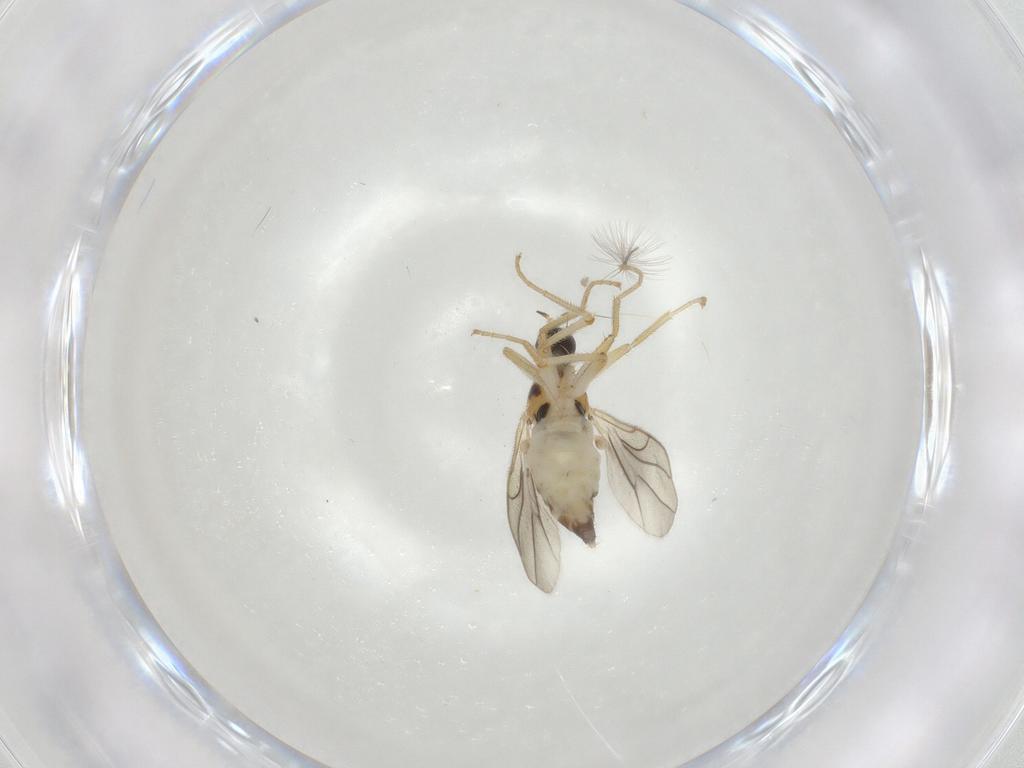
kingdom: Animalia
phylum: Arthropoda
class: Insecta
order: Diptera
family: Hybotidae
